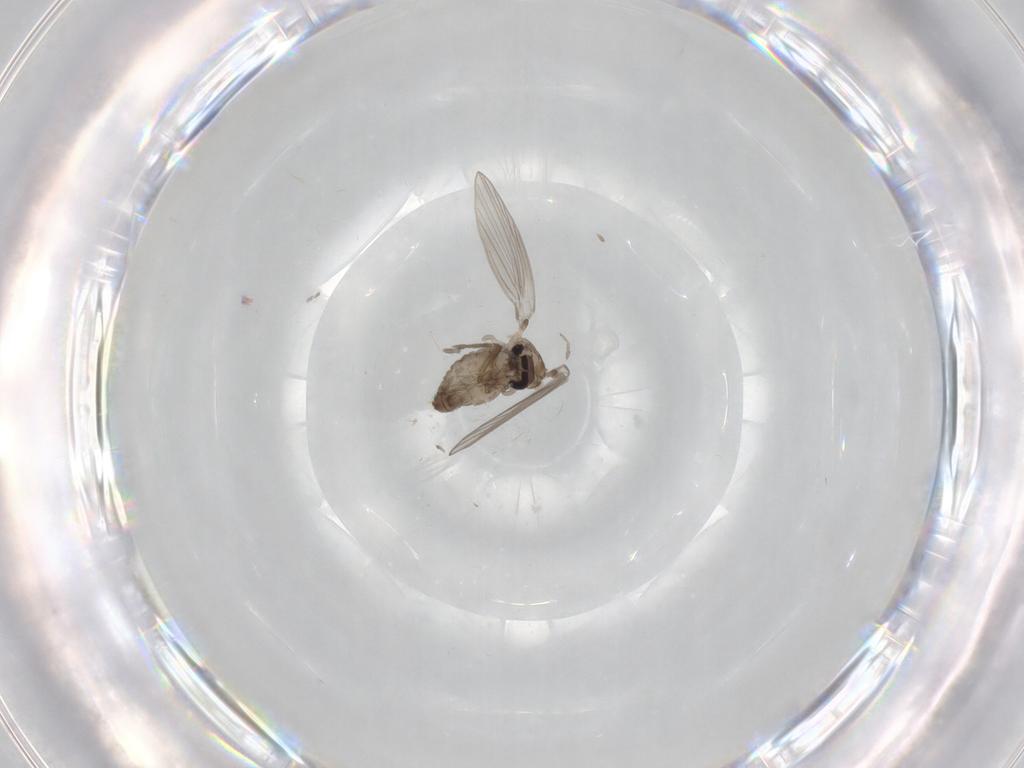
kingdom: Animalia
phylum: Arthropoda
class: Insecta
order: Diptera
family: Psychodidae
